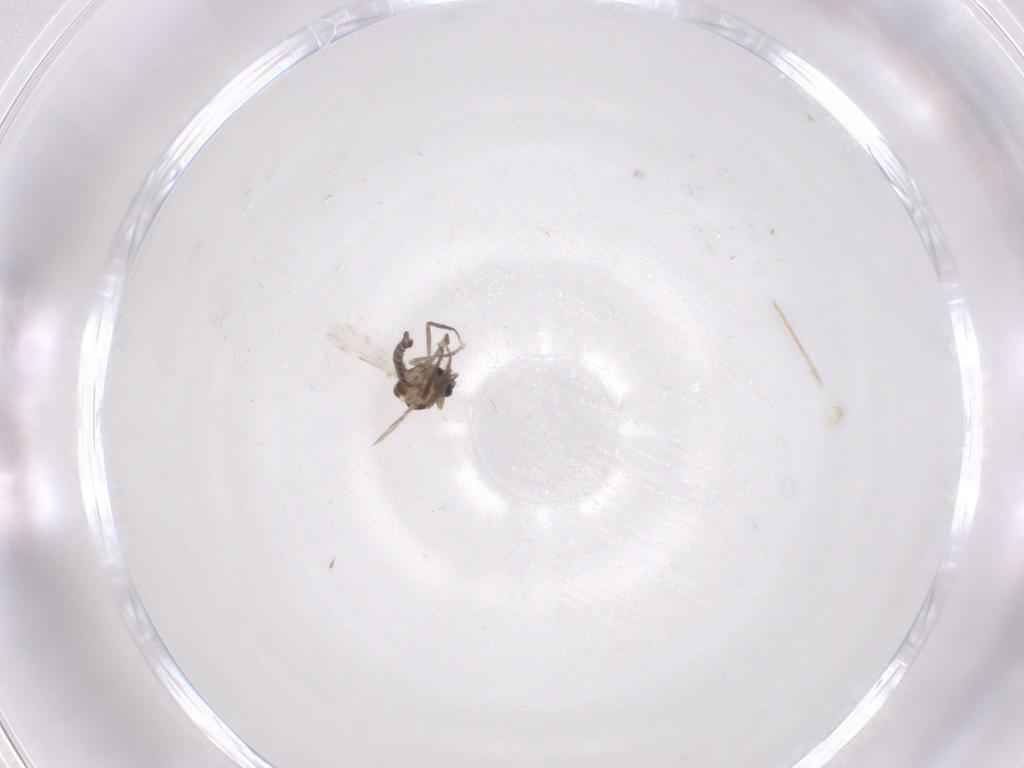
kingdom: Animalia
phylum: Arthropoda
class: Insecta
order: Diptera
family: Ceratopogonidae
